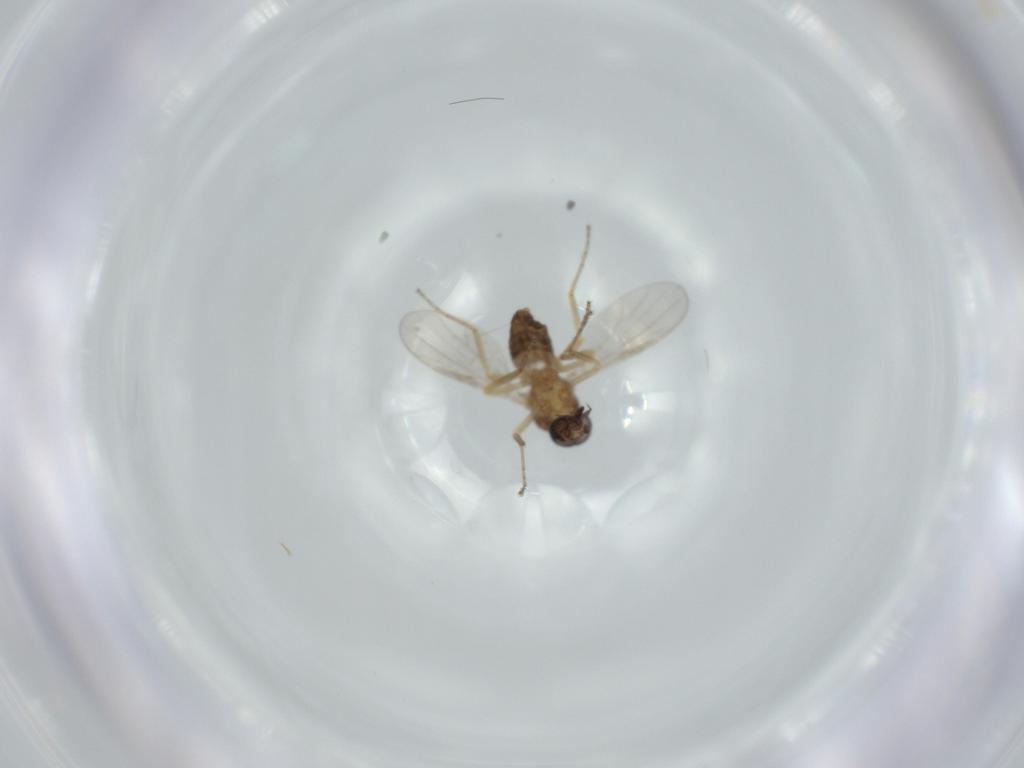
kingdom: Animalia
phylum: Arthropoda
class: Insecta
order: Diptera
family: Ceratopogonidae
